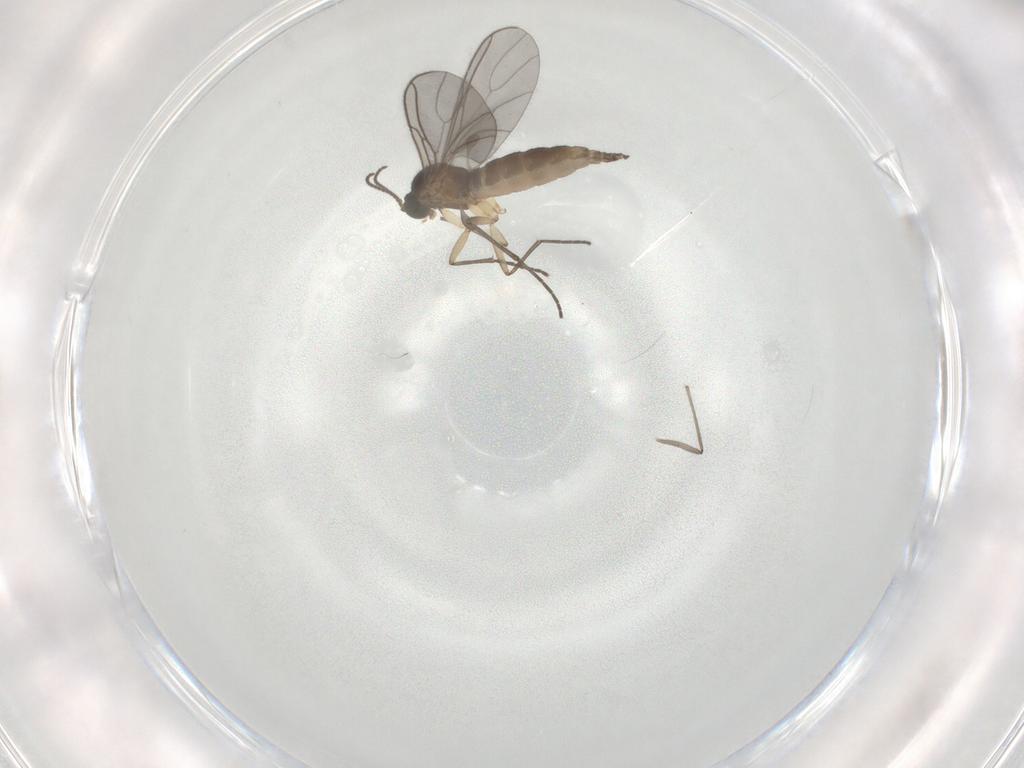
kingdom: Animalia
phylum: Arthropoda
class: Insecta
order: Diptera
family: Sciaridae
